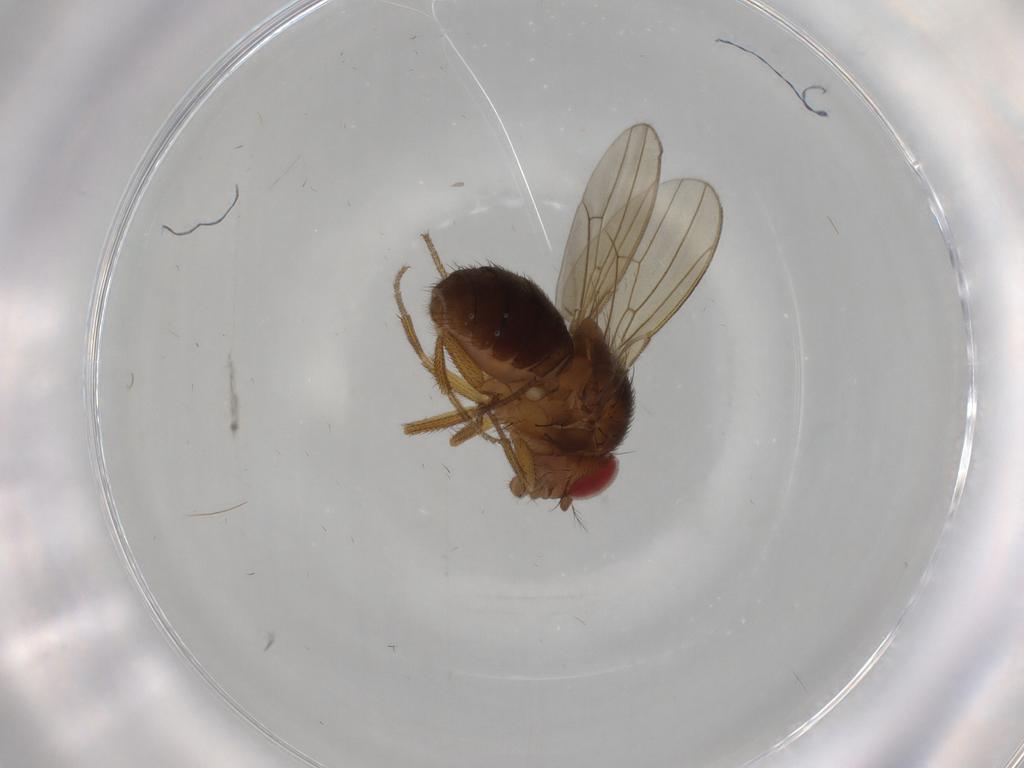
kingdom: Animalia
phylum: Arthropoda
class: Insecta
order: Diptera
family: Drosophilidae
